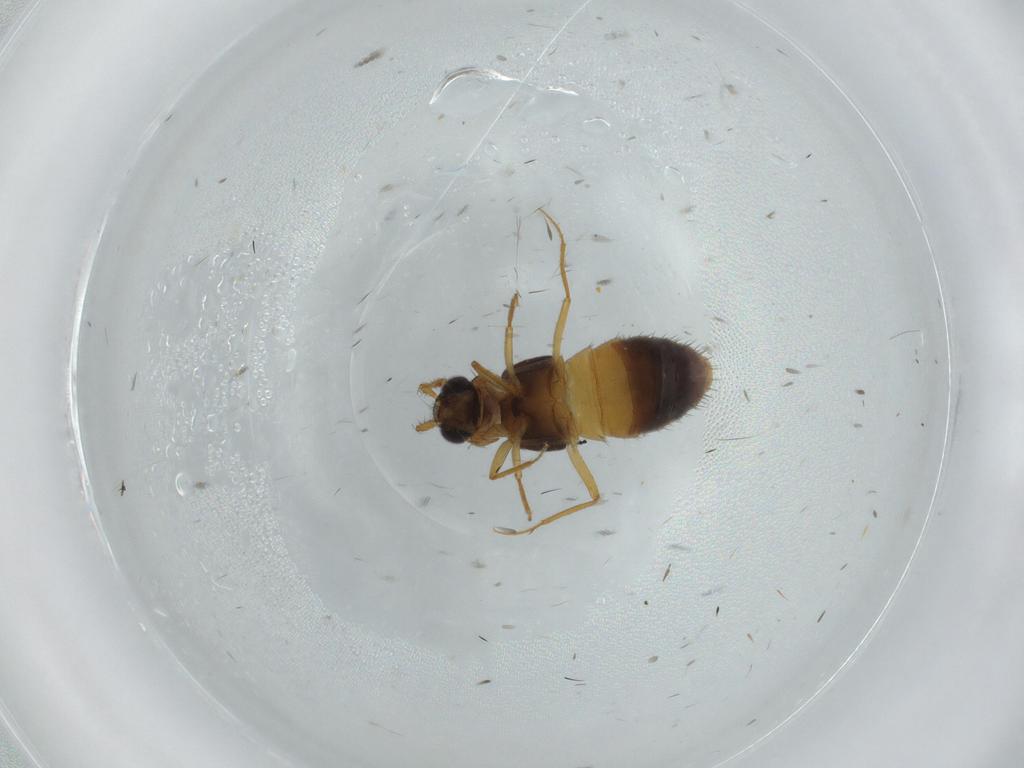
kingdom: Animalia
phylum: Arthropoda
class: Insecta
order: Coleoptera
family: Staphylinidae
